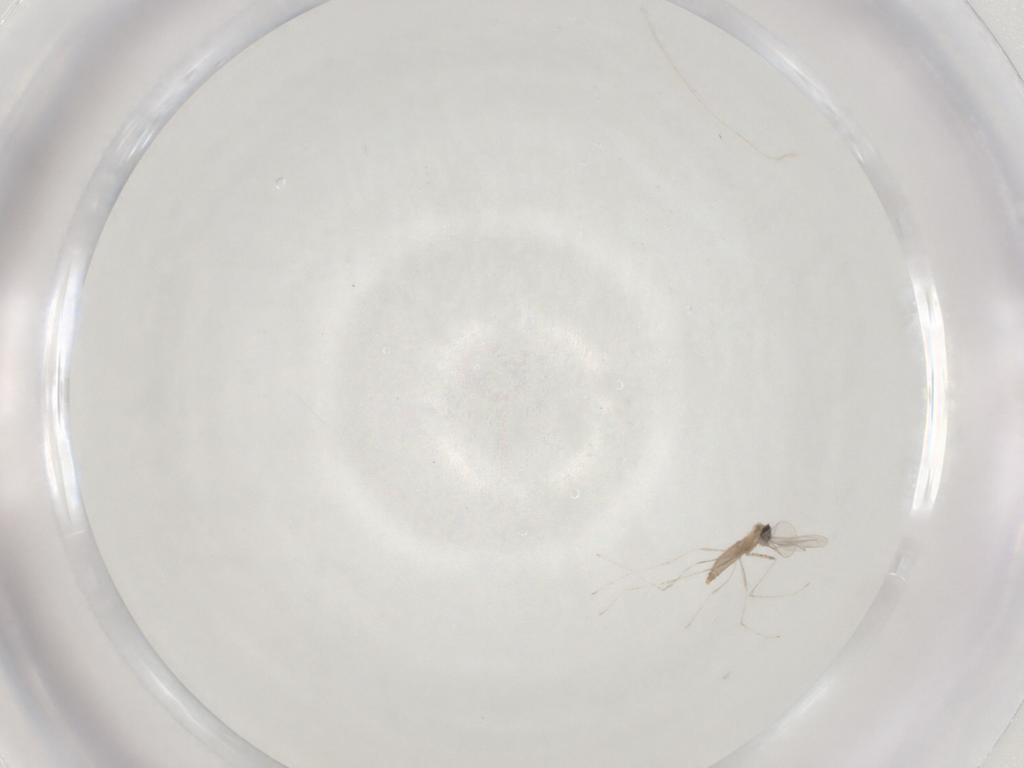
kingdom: Animalia
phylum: Arthropoda
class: Insecta
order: Diptera
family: Cecidomyiidae
